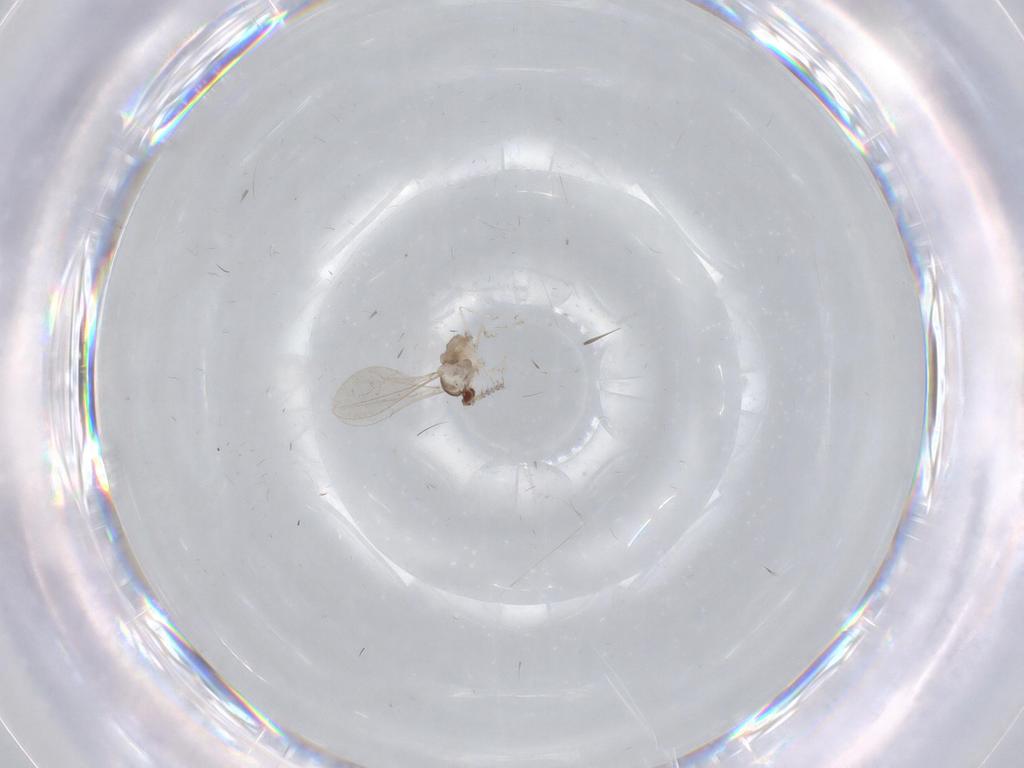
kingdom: Animalia
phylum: Arthropoda
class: Insecta
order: Diptera
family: Cecidomyiidae
